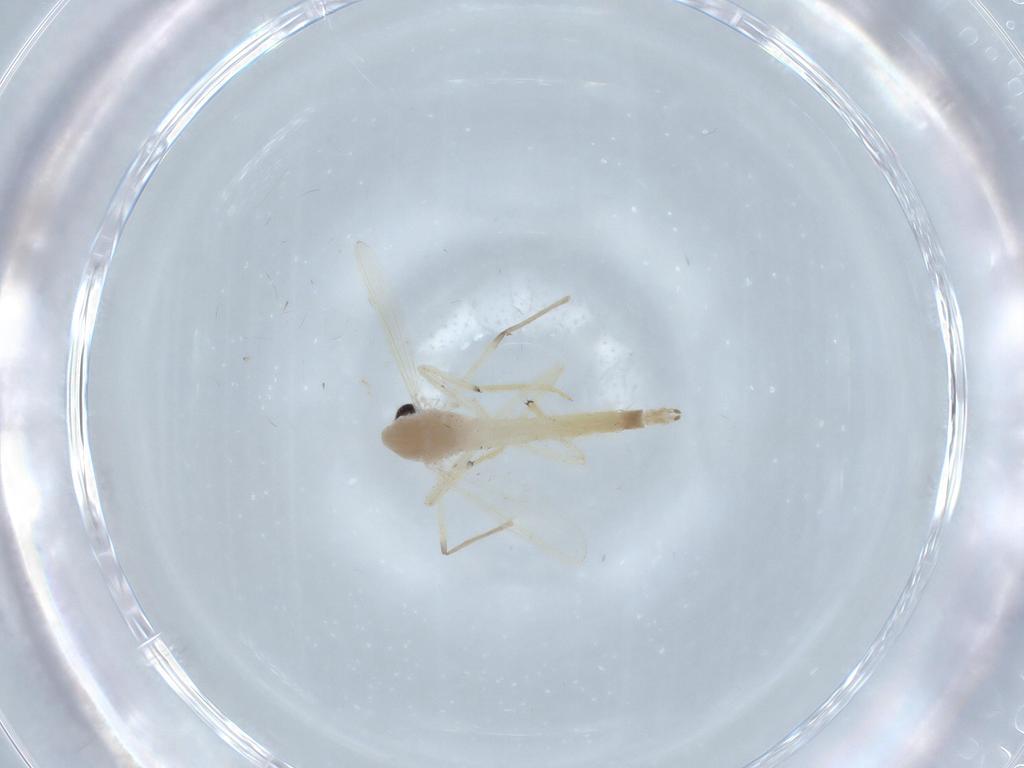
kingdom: Animalia
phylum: Arthropoda
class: Insecta
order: Diptera
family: Chironomidae
